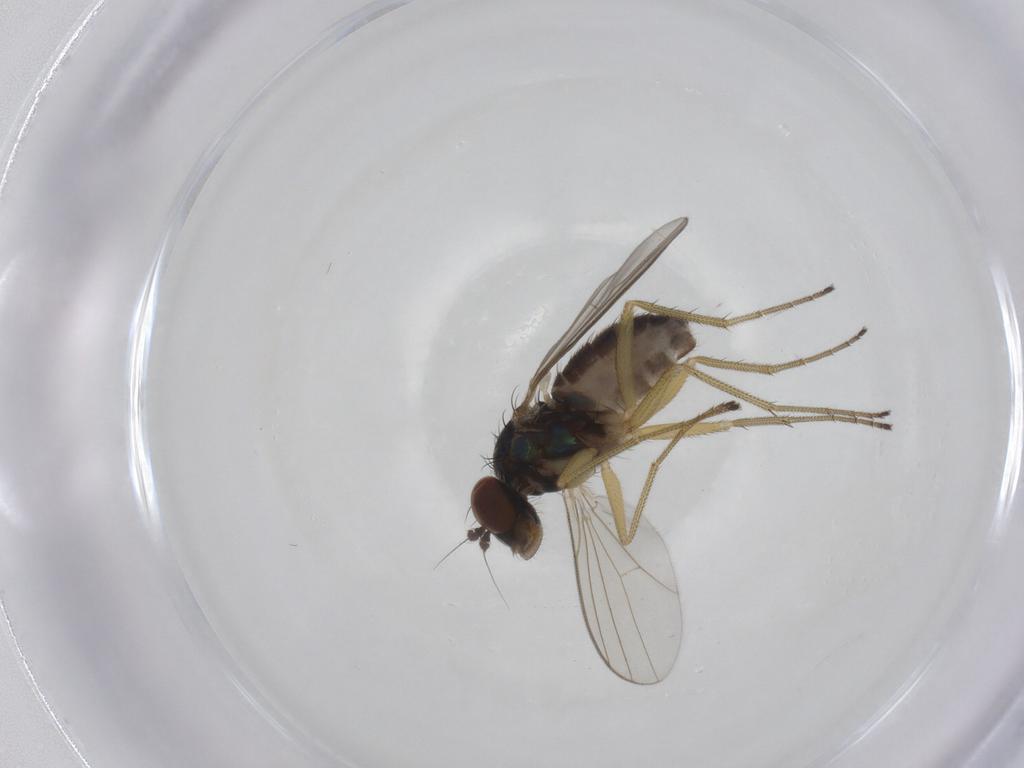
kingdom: Animalia
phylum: Arthropoda
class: Insecta
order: Diptera
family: Dolichopodidae
